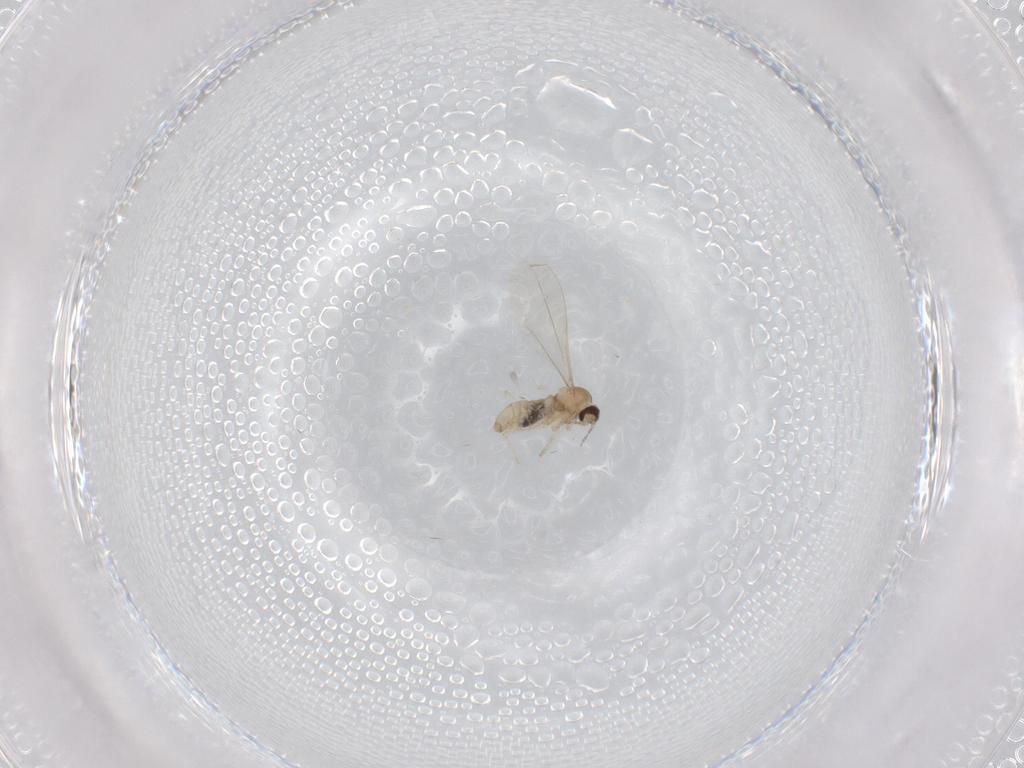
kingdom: Animalia
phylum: Arthropoda
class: Insecta
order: Diptera
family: Cecidomyiidae
